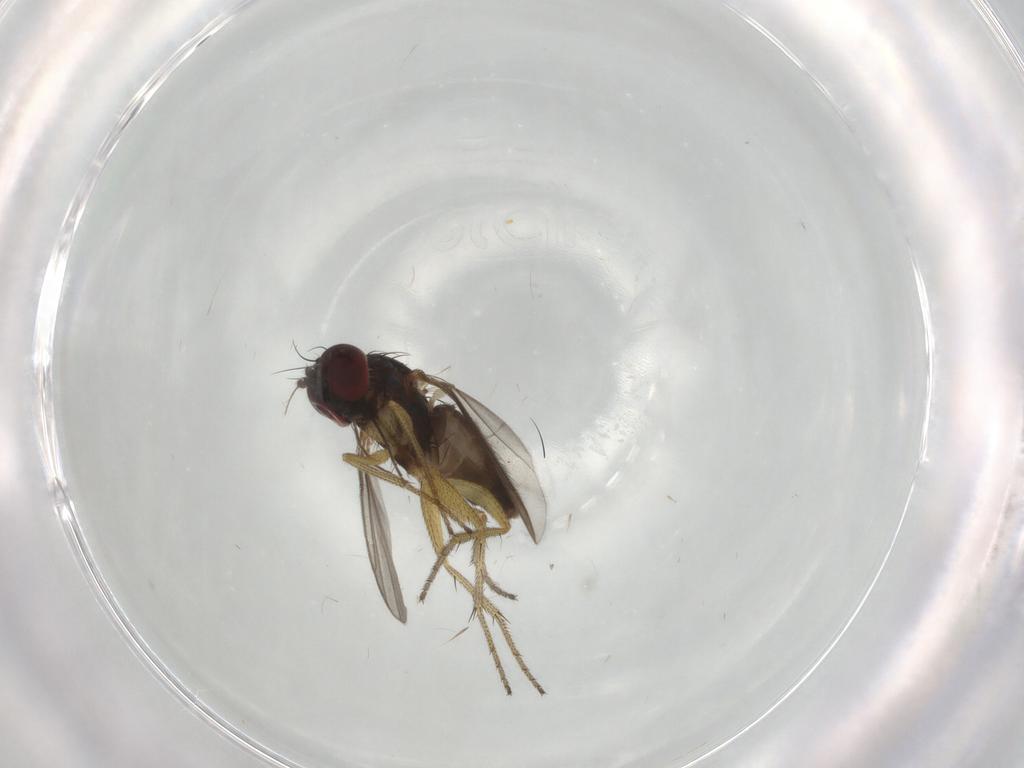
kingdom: Animalia
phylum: Arthropoda
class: Insecta
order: Diptera
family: Dolichopodidae
